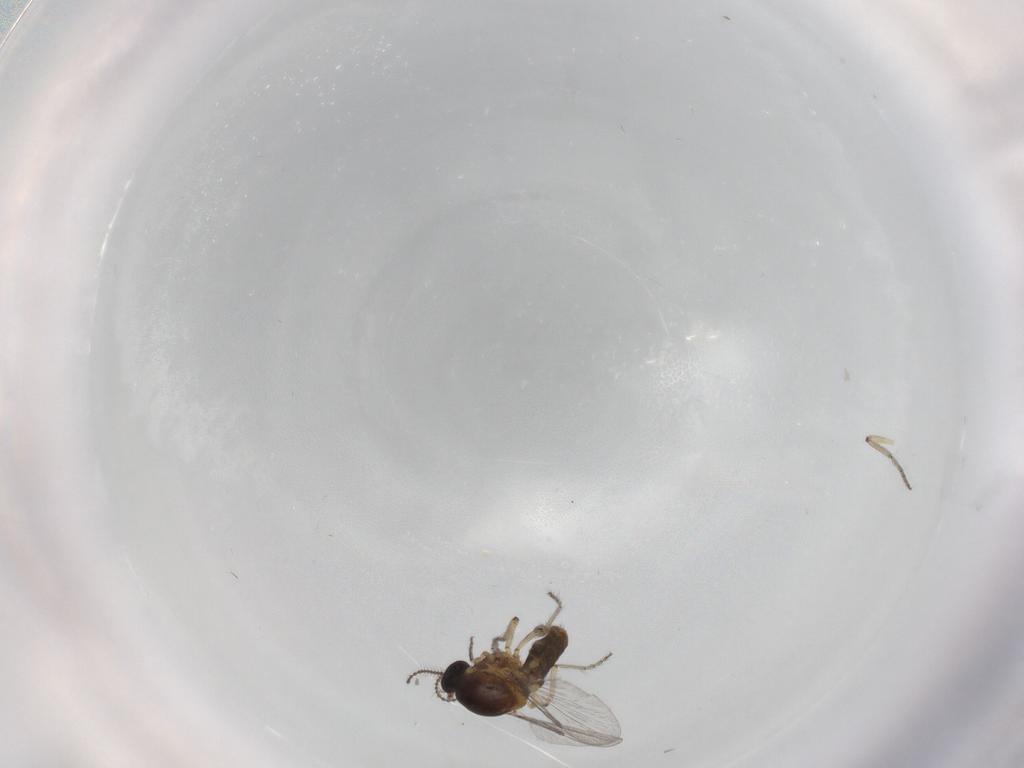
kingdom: Animalia
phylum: Arthropoda
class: Insecta
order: Diptera
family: Ceratopogonidae
